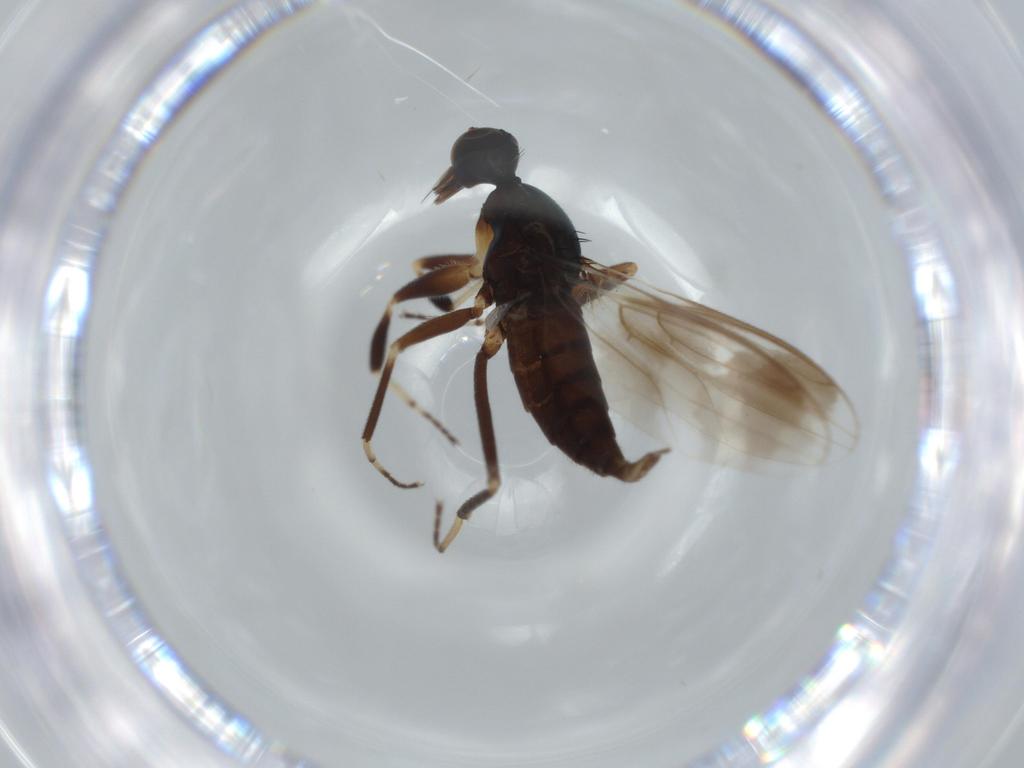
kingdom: Animalia
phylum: Arthropoda
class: Insecta
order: Diptera
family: Hybotidae
